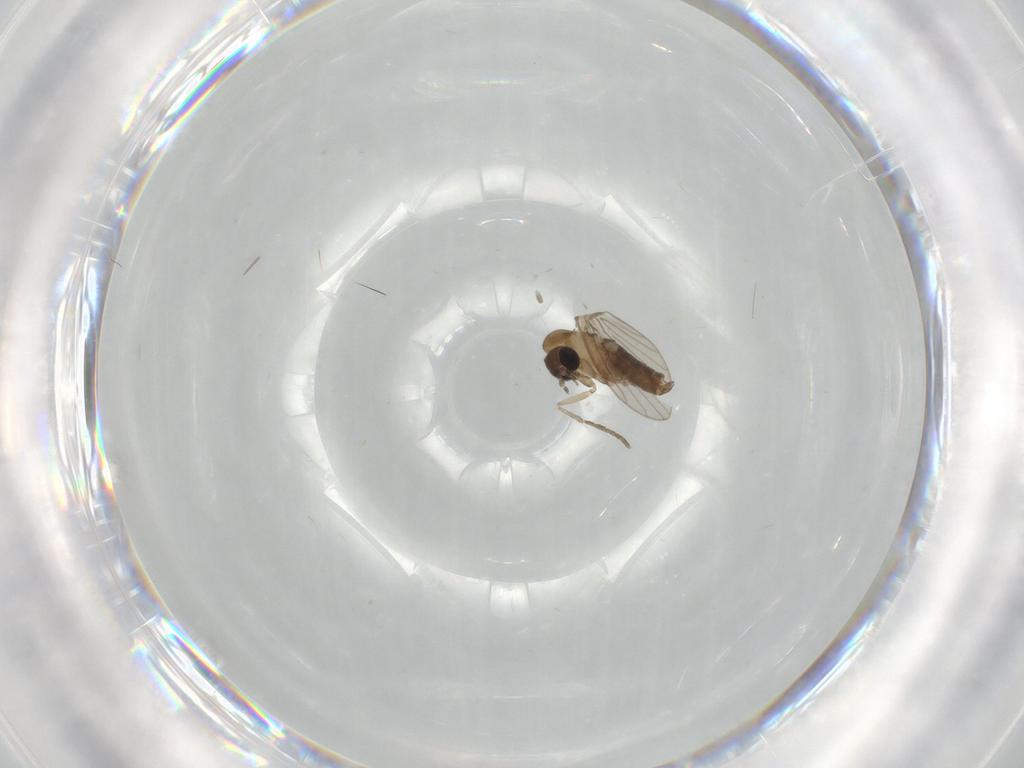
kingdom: Animalia
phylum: Arthropoda
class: Insecta
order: Diptera
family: Psychodidae
